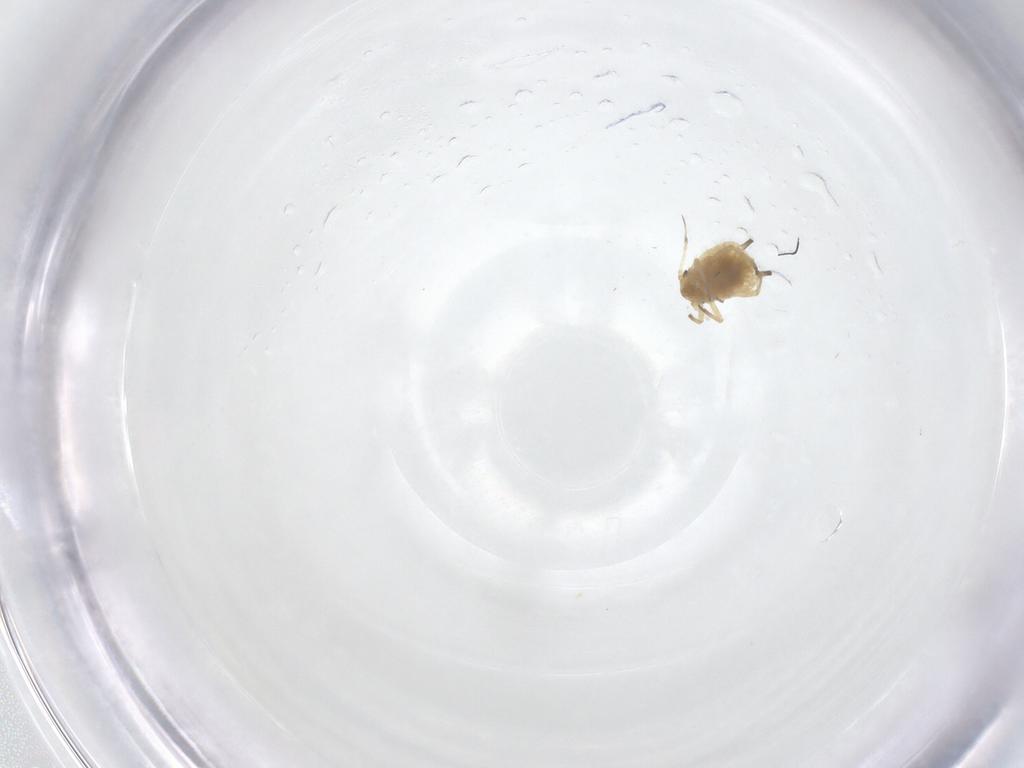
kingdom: Animalia
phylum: Arthropoda
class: Insecta
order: Hemiptera
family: Aphididae
